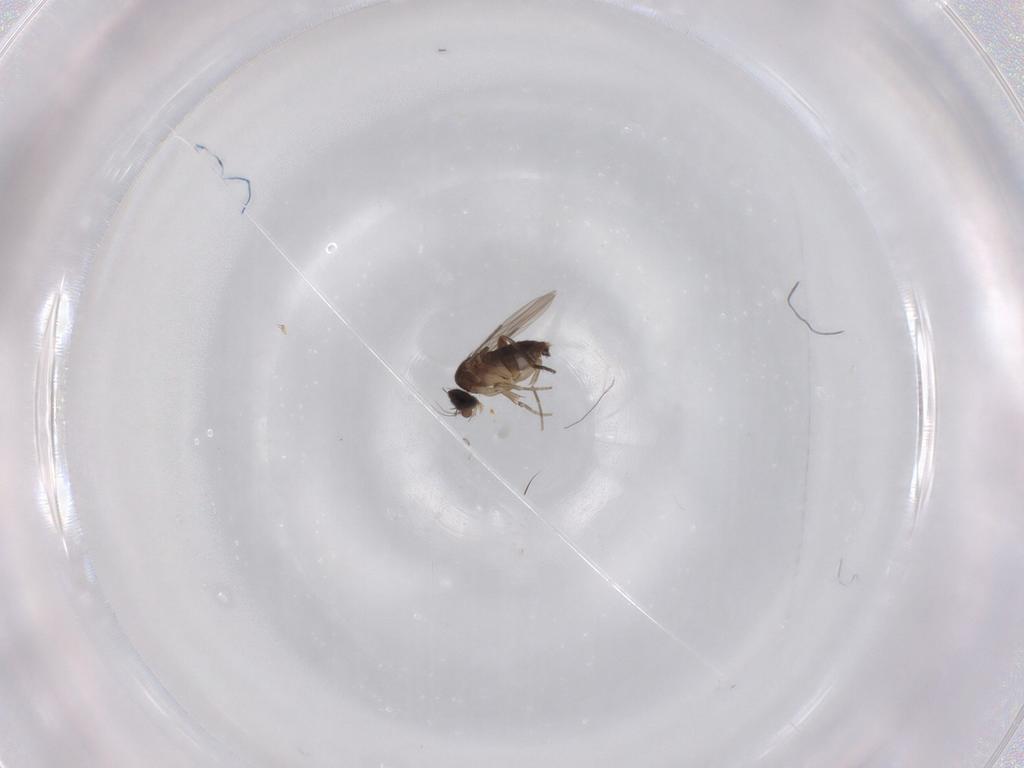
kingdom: Animalia
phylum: Arthropoda
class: Insecta
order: Diptera
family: Phoridae
